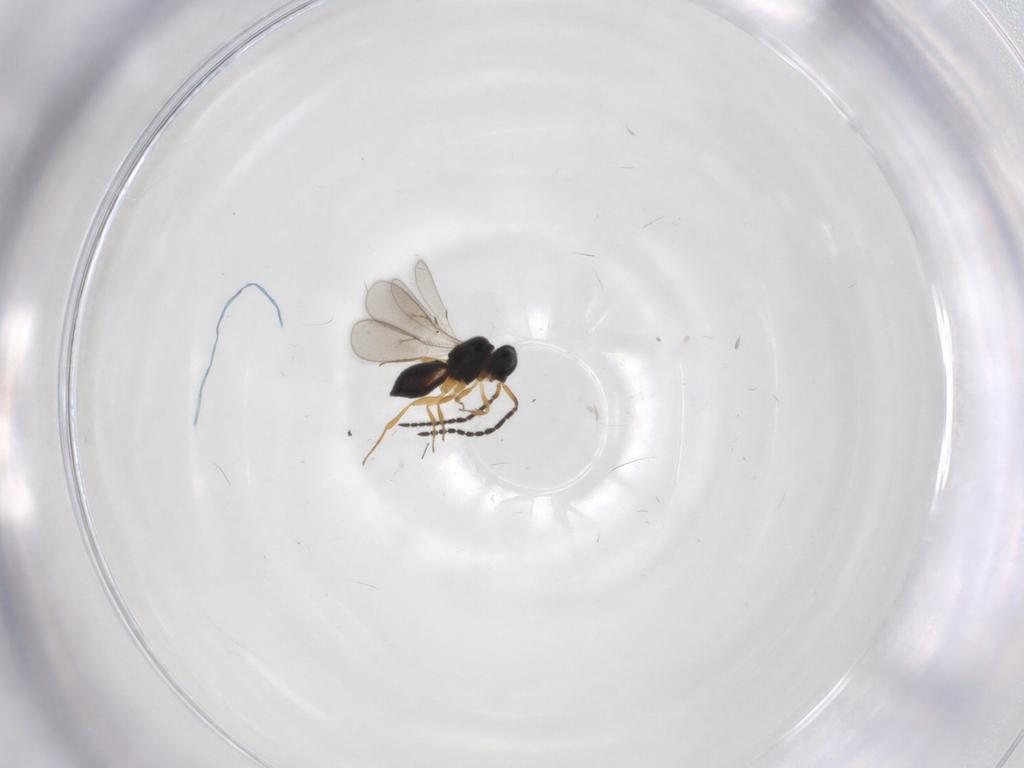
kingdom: Animalia
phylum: Arthropoda
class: Insecta
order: Hymenoptera
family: Scelionidae
